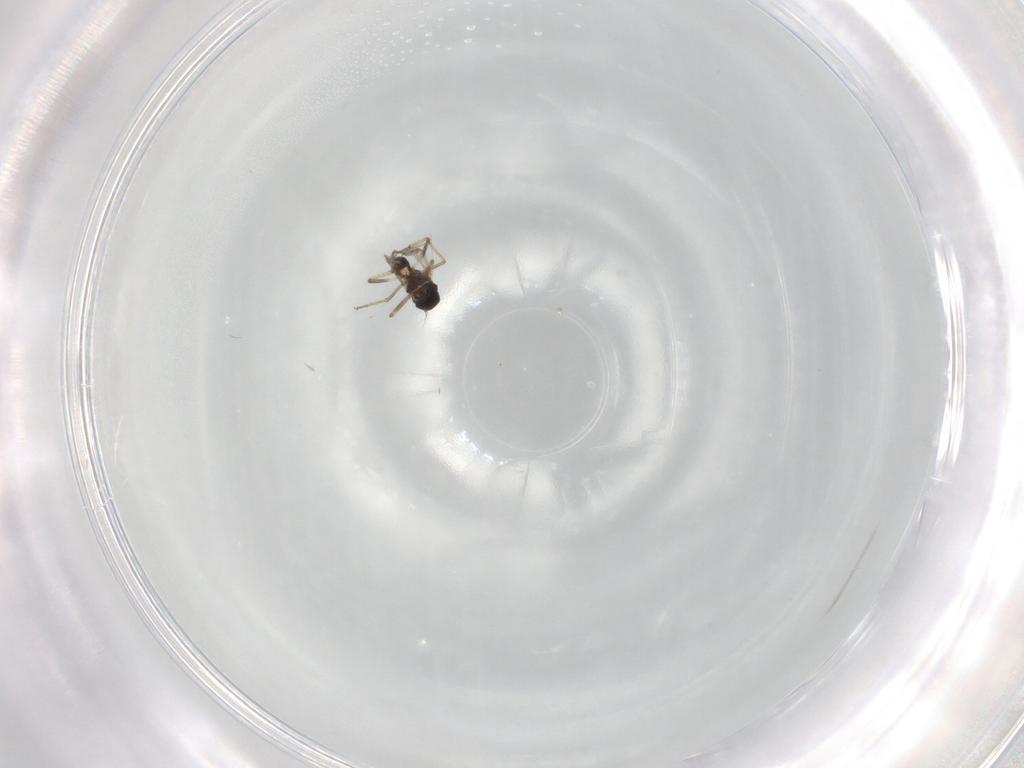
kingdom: Animalia
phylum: Arthropoda
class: Insecta
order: Diptera
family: Ceratopogonidae
